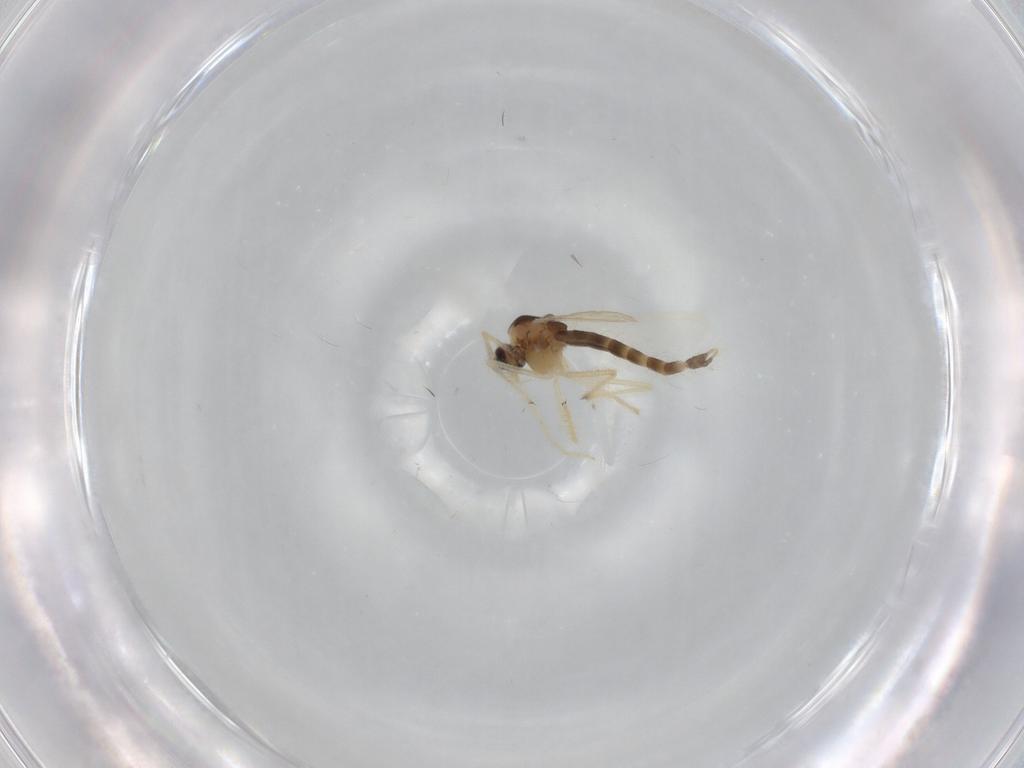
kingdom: Animalia
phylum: Arthropoda
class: Insecta
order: Diptera
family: Chironomidae
